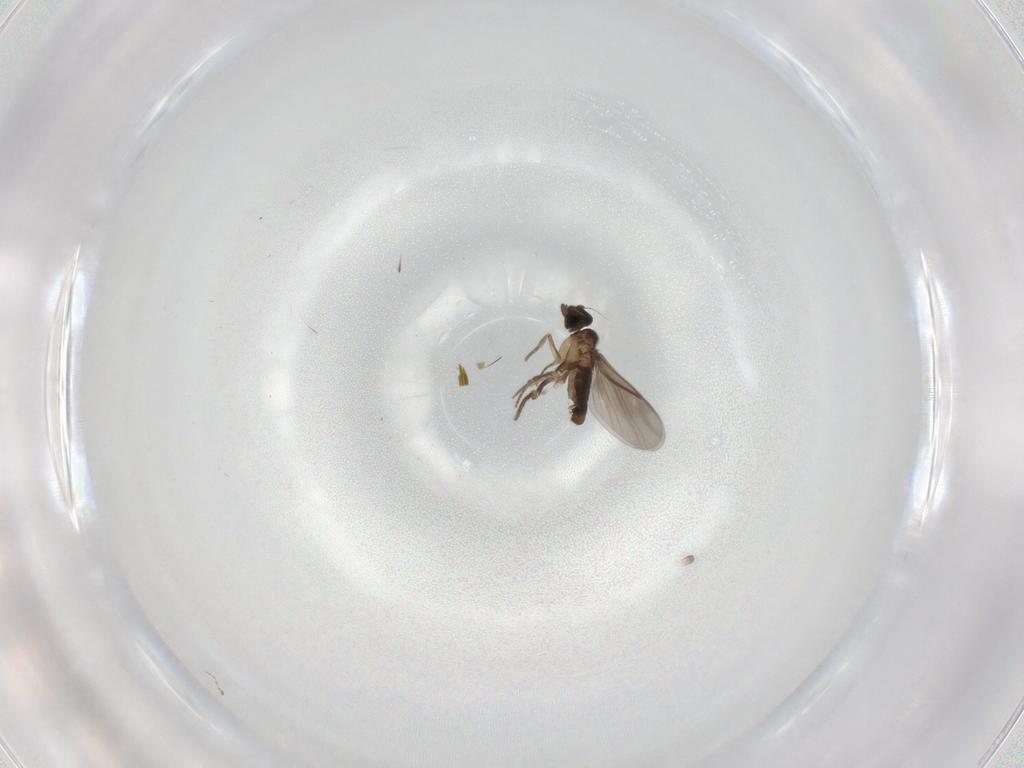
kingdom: Animalia
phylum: Arthropoda
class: Insecta
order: Diptera
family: Cecidomyiidae
